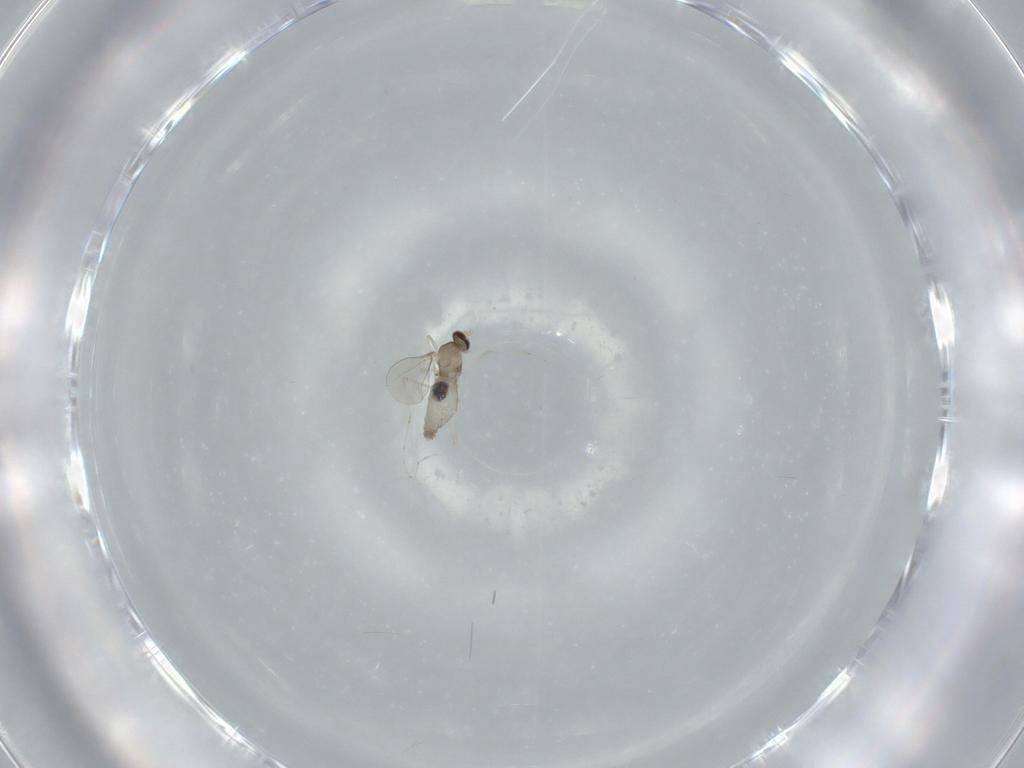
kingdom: Animalia
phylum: Arthropoda
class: Insecta
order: Diptera
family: Cecidomyiidae
